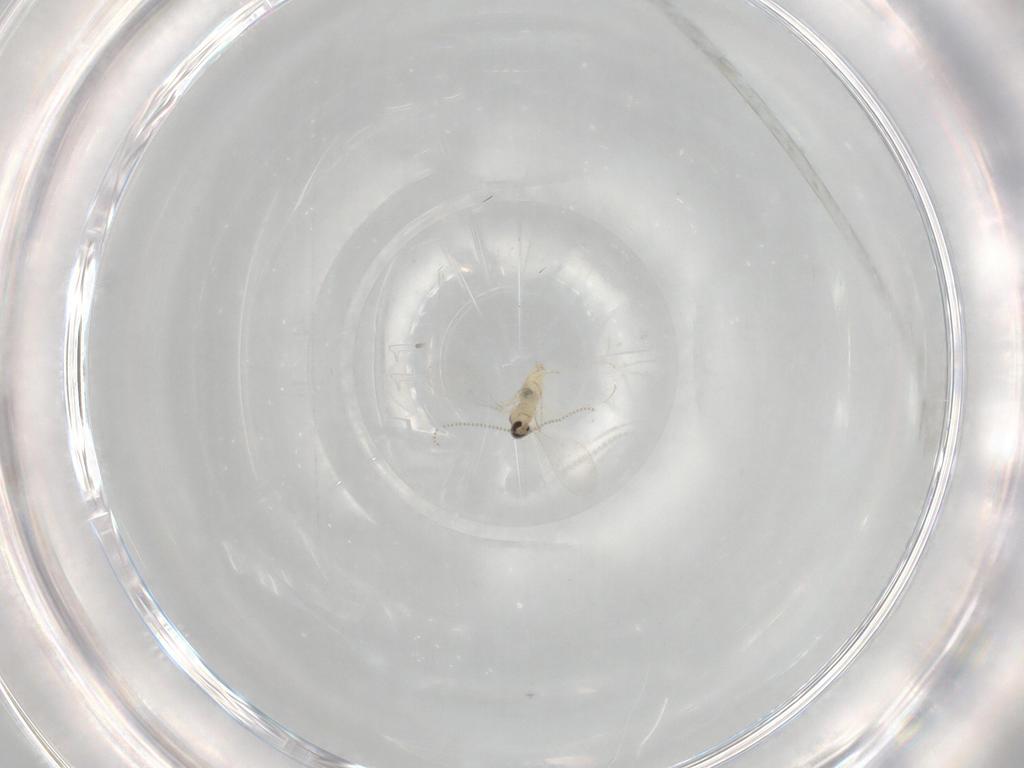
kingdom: Animalia
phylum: Arthropoda
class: Insecta
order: Diptera
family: Cecidomyiidae
